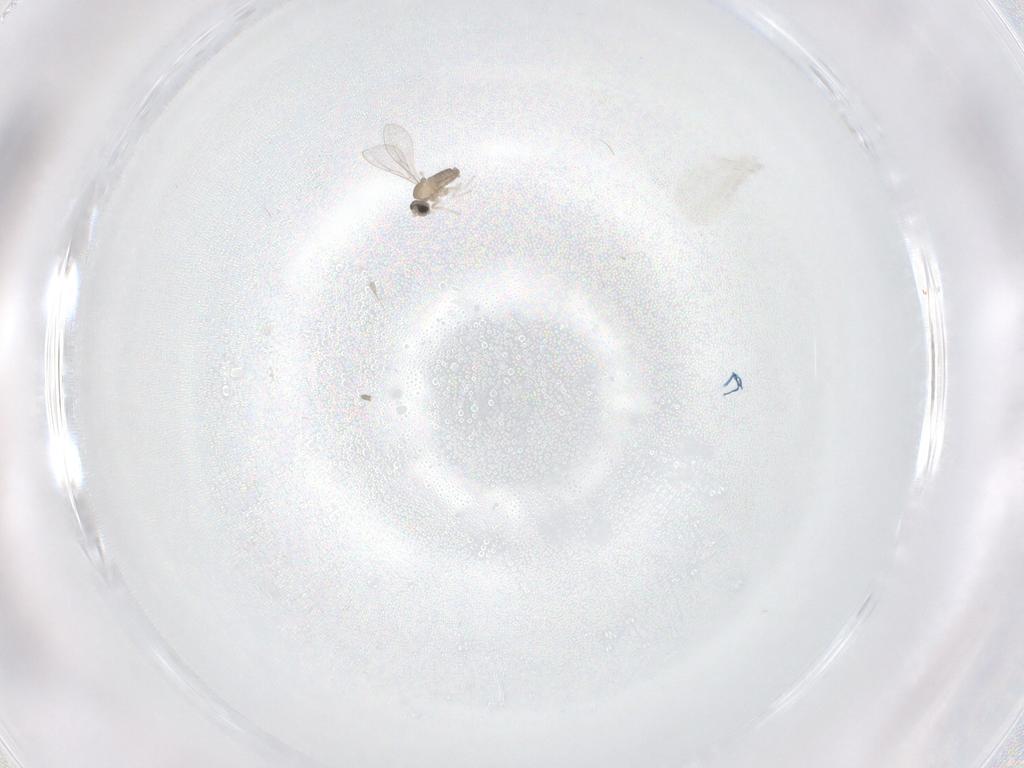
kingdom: Animalia
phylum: Arthropoda
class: Insecta
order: Diptera
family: Cecidomyiidae
